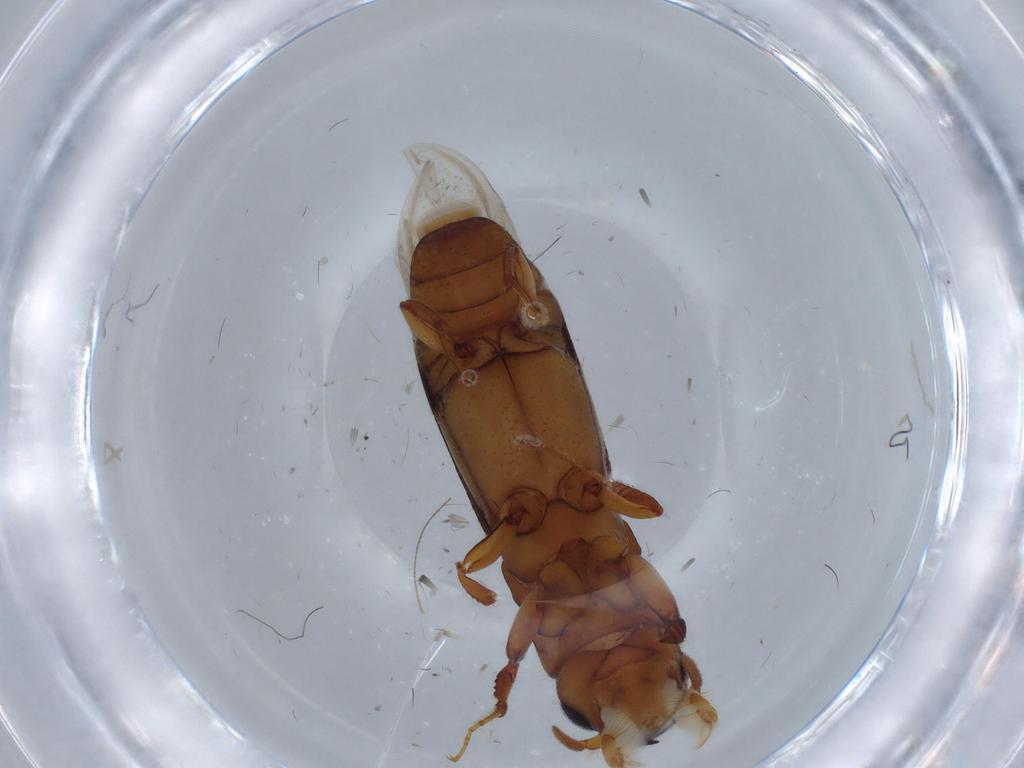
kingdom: Animalia
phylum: Arthropoda
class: Insecta
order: Coleoptera
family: Curculionidae
